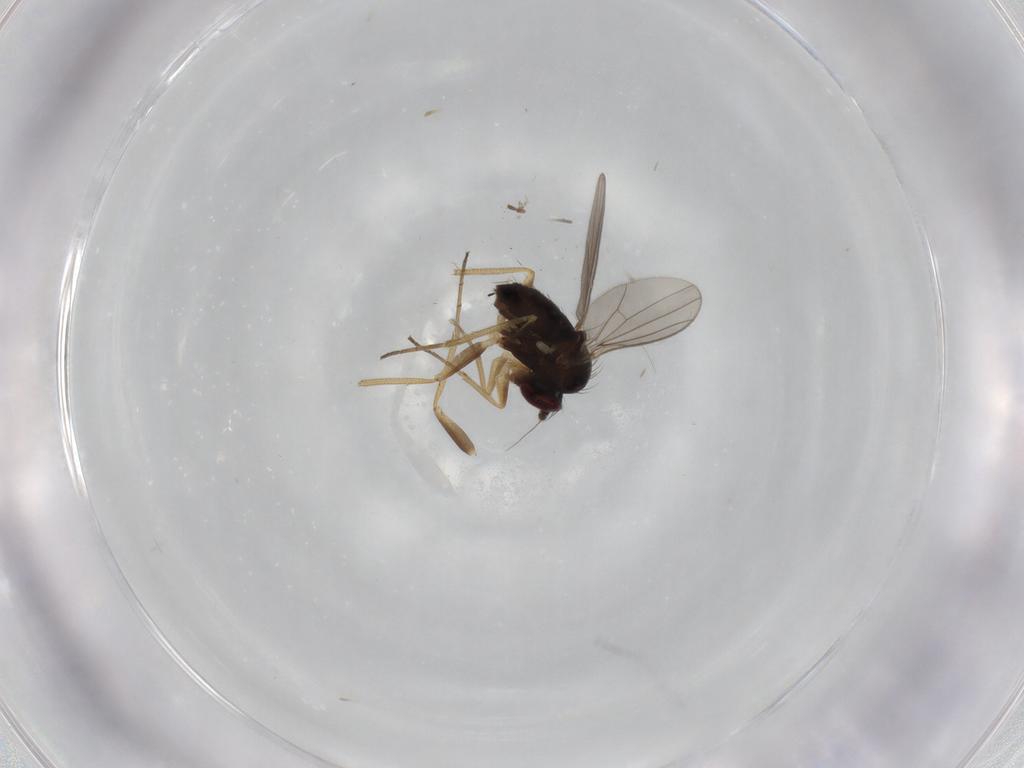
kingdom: Animalia
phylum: Arthropoda
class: Insecta
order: Diptera
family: Dolichopodidae
